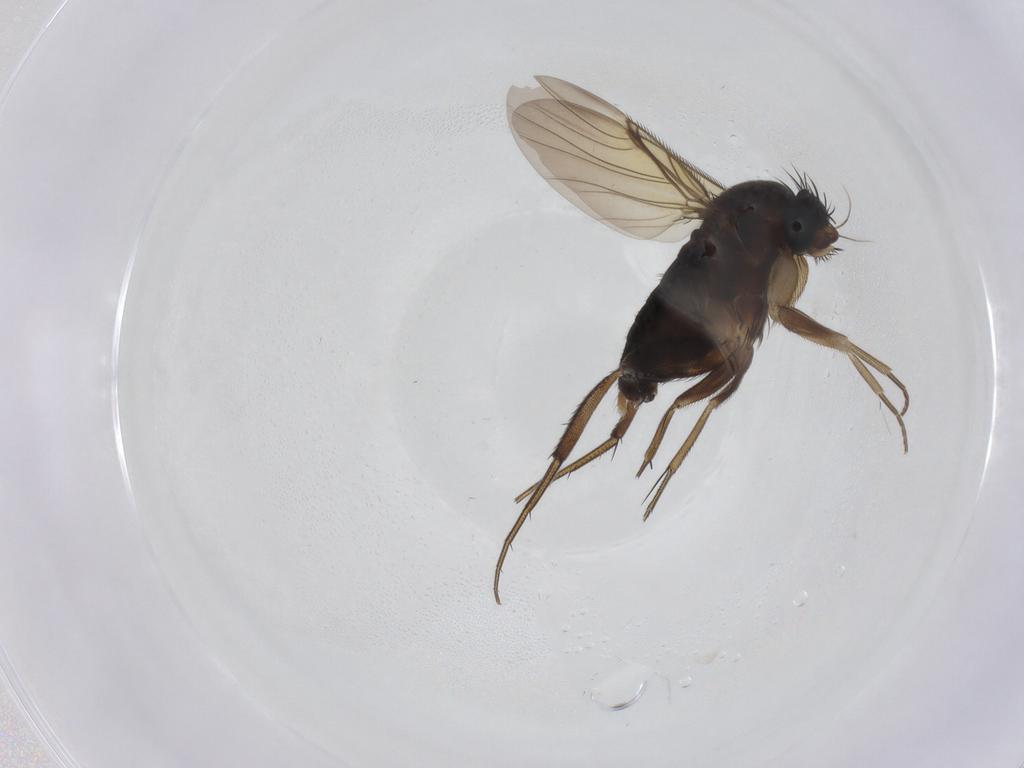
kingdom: Animalia
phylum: Arthropoda
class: Insecta
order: Diptera
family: Phoridae
